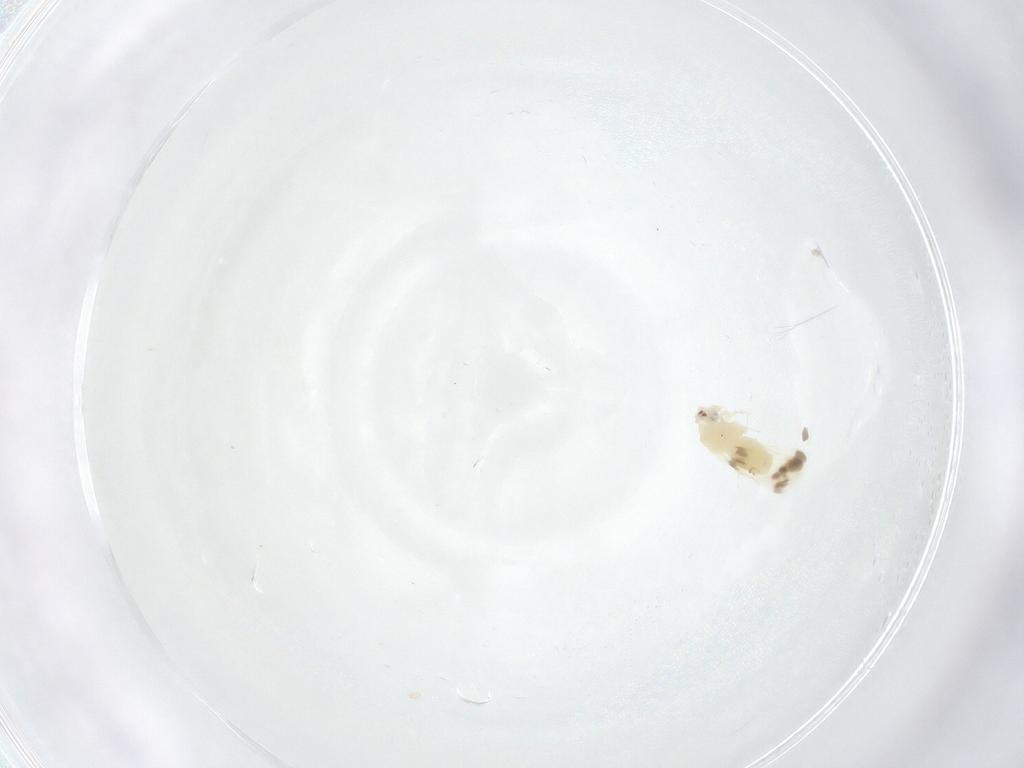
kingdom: Animalia
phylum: Arthropoda
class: Insecta
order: Hemiptera
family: Aleyrodidae
